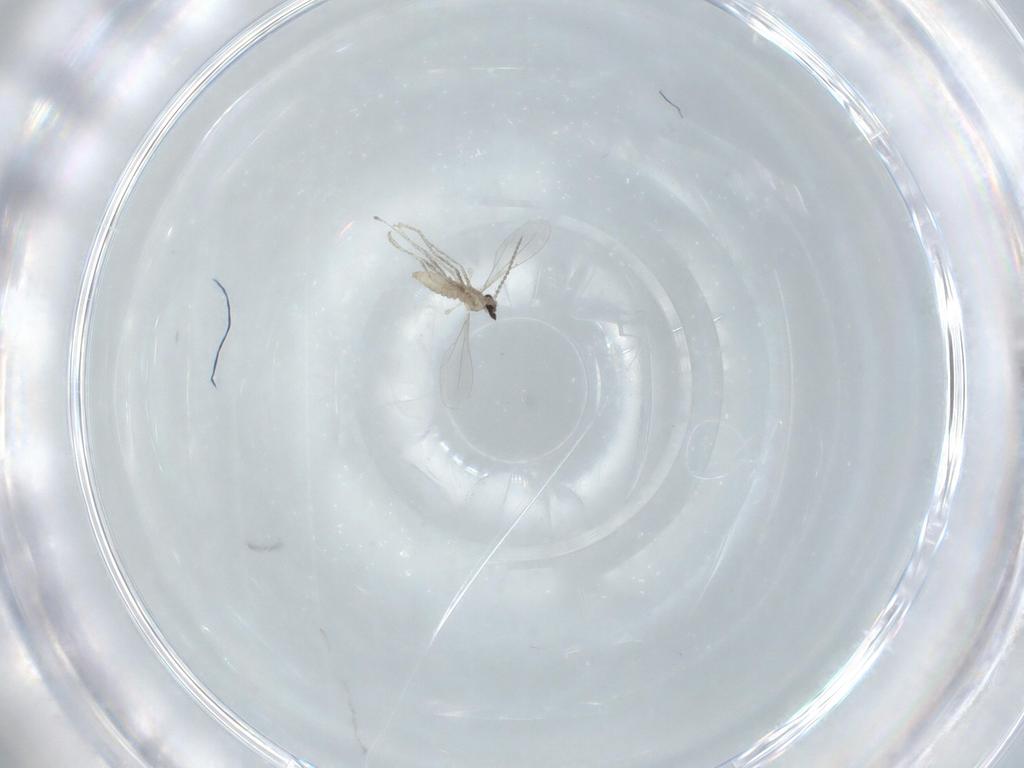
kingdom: Animalia
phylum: Arthropoda
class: Insecta
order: Diptera
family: Cecidomyiidae
